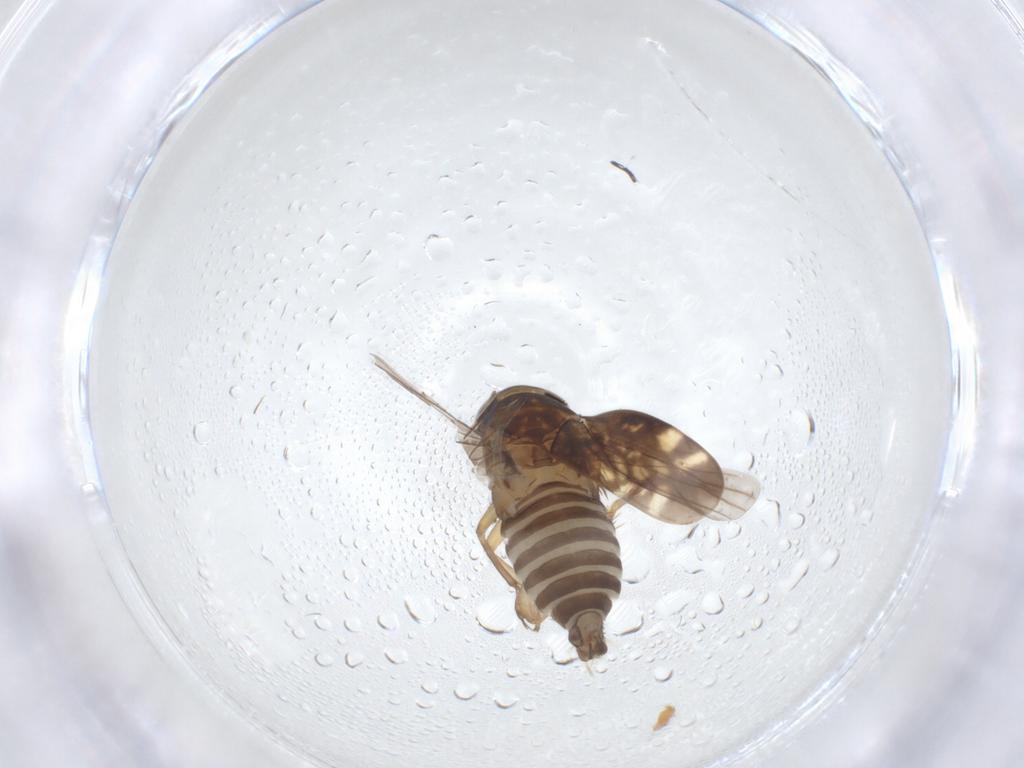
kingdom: Animalia
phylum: Arthropoda
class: Insecta
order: Hemiptera
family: Cicadellidae
